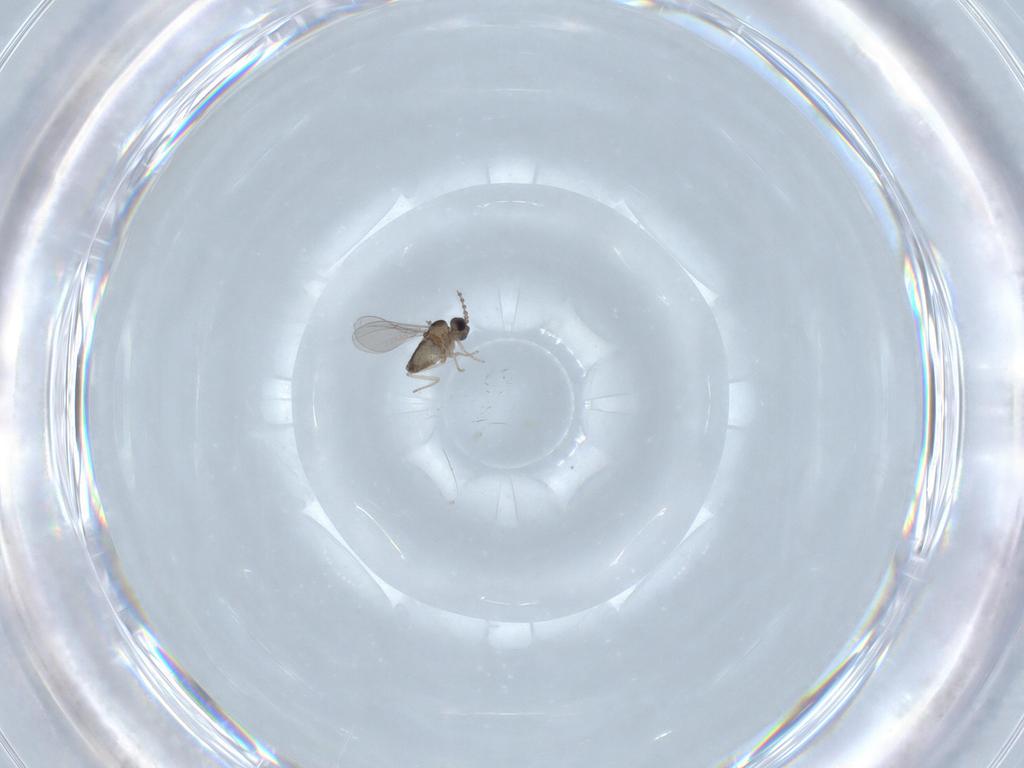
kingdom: Animalia
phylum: Arthropoda
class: Insecta
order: Diptera
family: Cecidomyiidae
